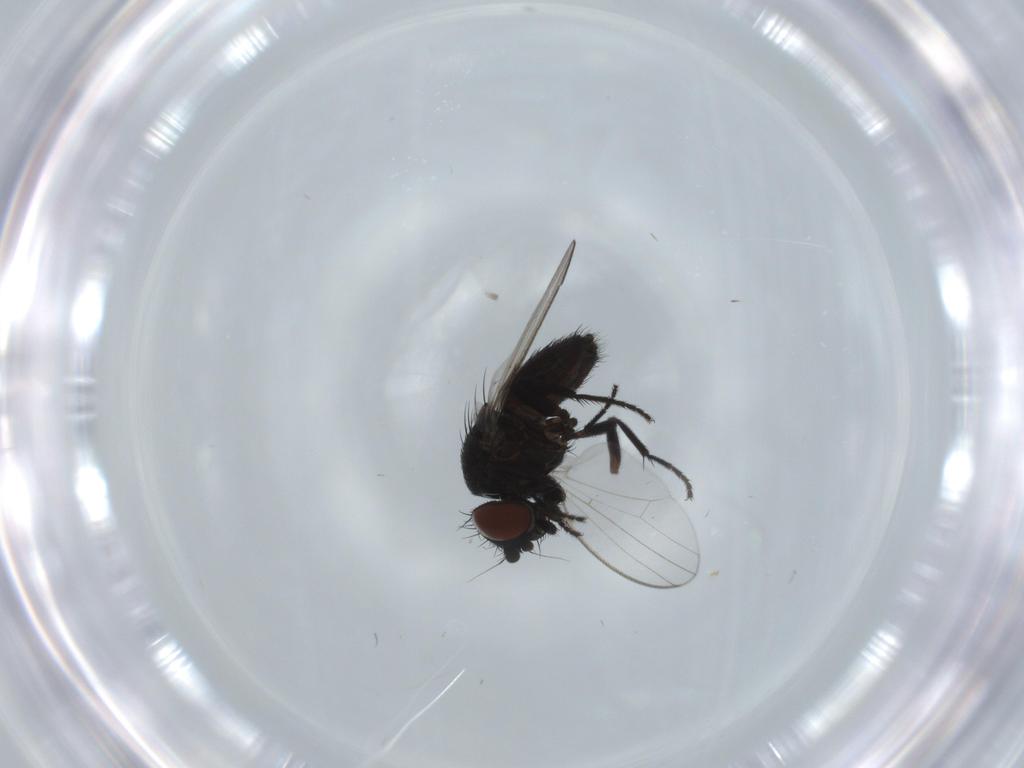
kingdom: Animalia
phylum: Arthropoda
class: Insecta
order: Diptera
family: Milichiidae
